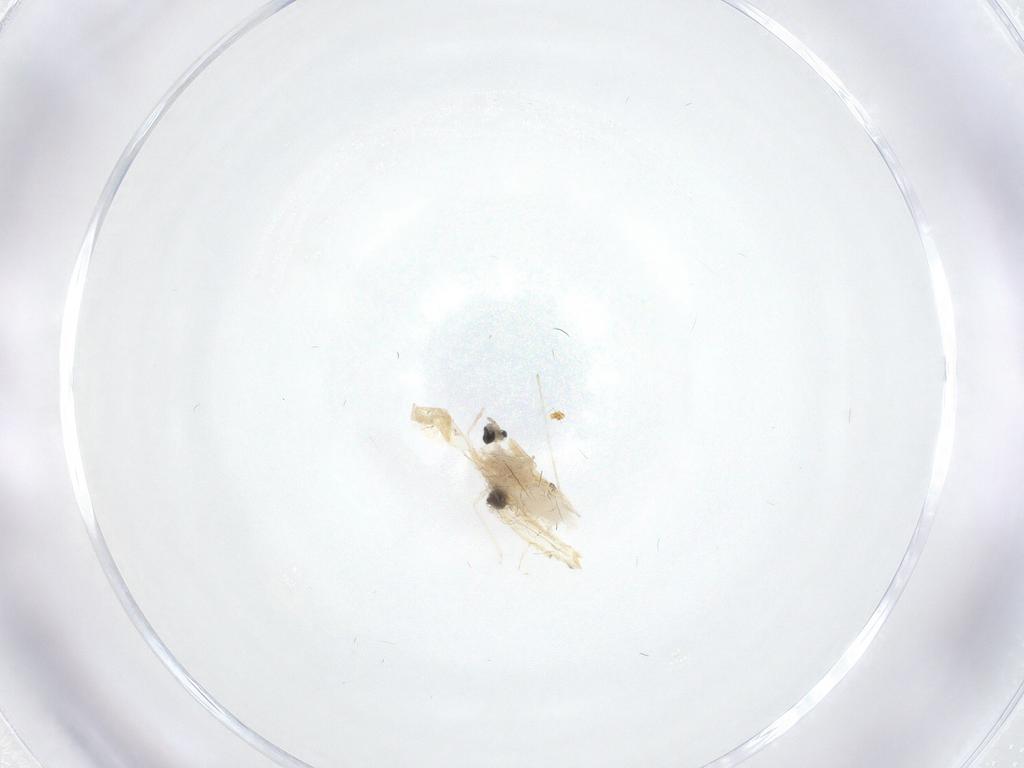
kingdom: Animalia
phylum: Arthropoda
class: Insecta
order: Diptera
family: Cecidomyiidae
